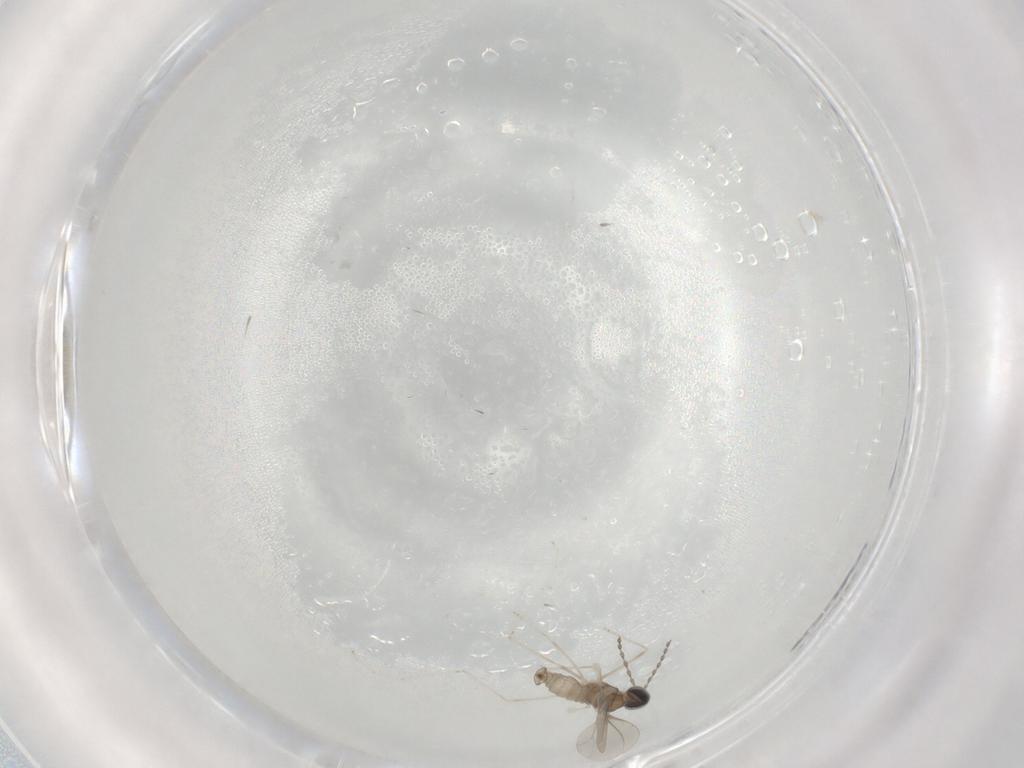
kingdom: Animalia
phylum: Arthropoda
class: Insecta
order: Diptera
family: Cecidomyiidae
